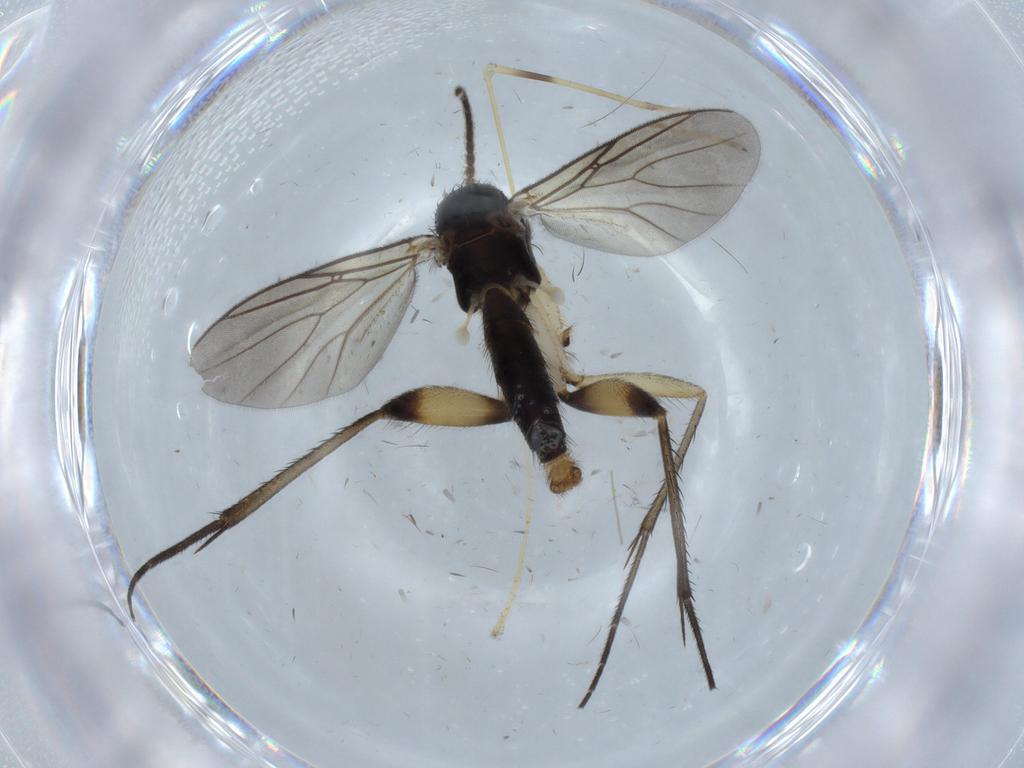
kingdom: Animalia
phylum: Arthropoda
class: Insecta
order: Diptera
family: Limoniidae
